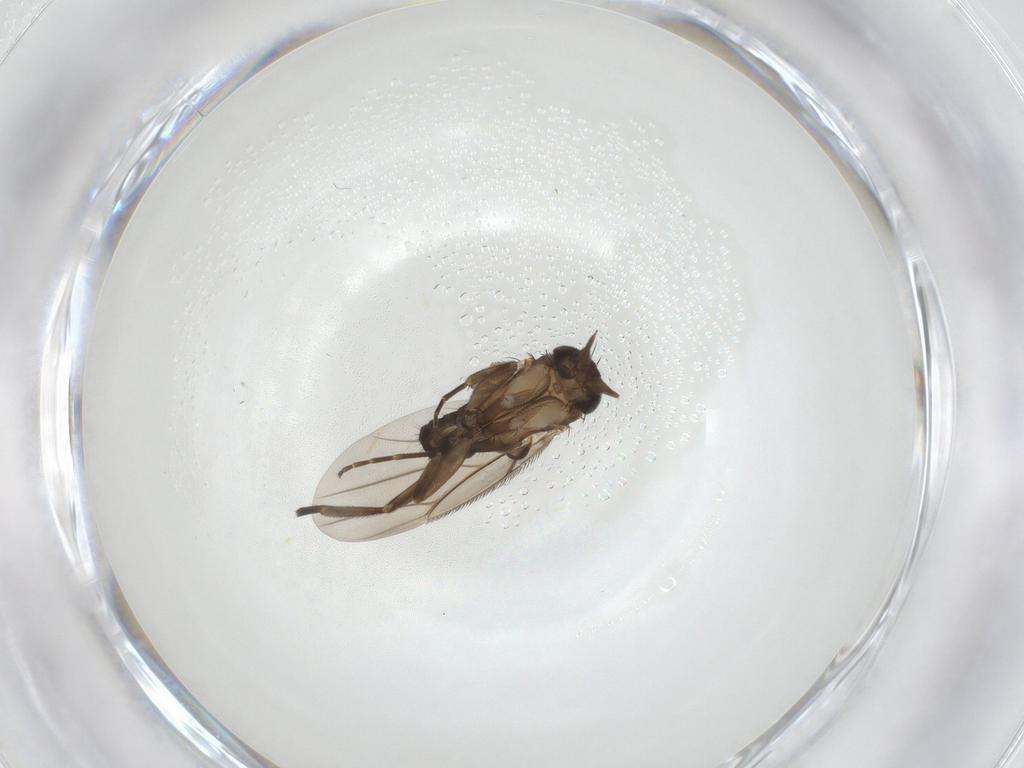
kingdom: Animalia
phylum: Arthropoda
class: Insecta
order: Diptera
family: Phoridae
